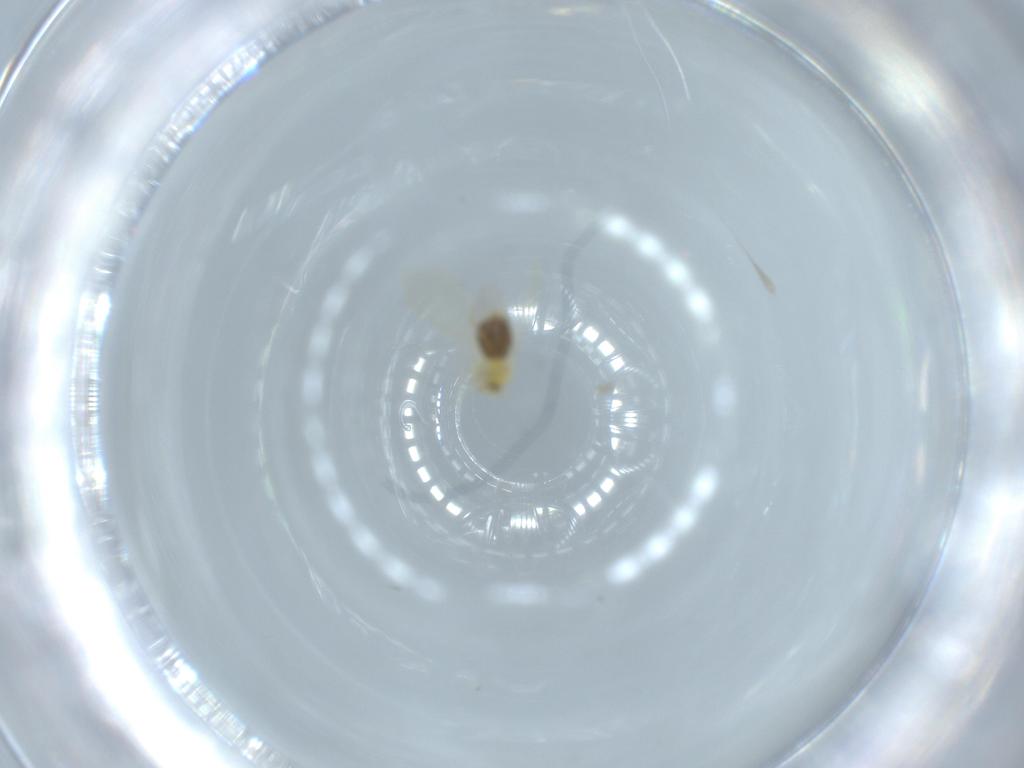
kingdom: Animalia
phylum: Arthropoda
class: Insecta
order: Hemiptera
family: Aleyrodidae
